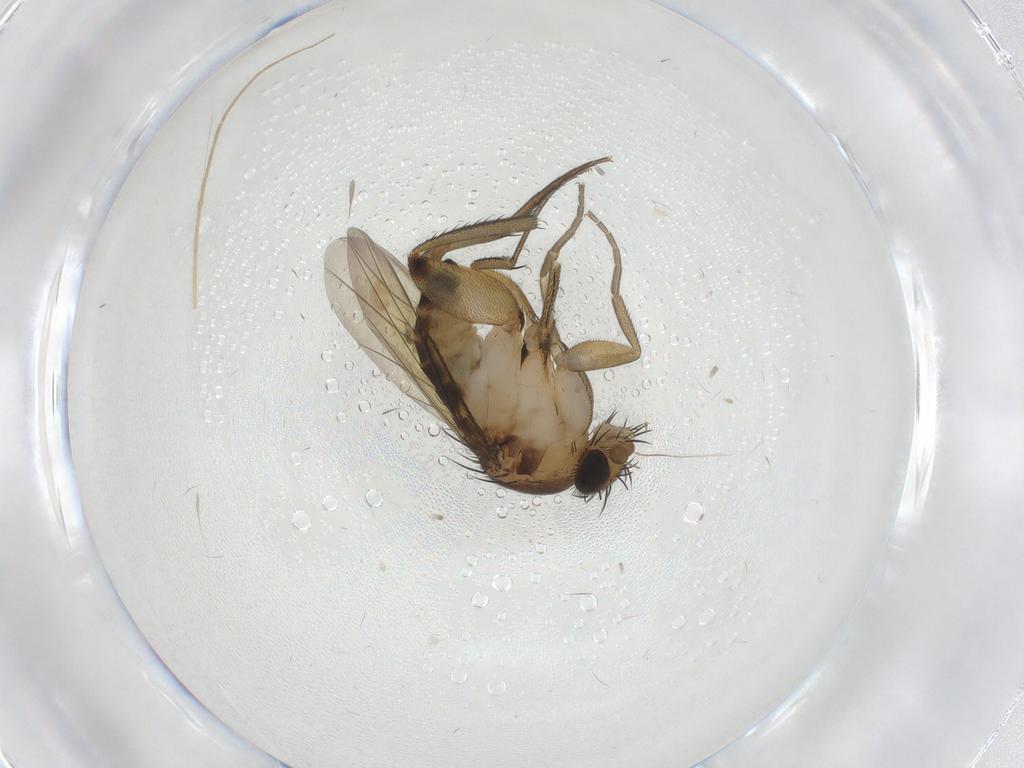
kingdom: Animalia
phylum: Arthropoda
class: Insecta
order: Diptera
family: Phoridae
